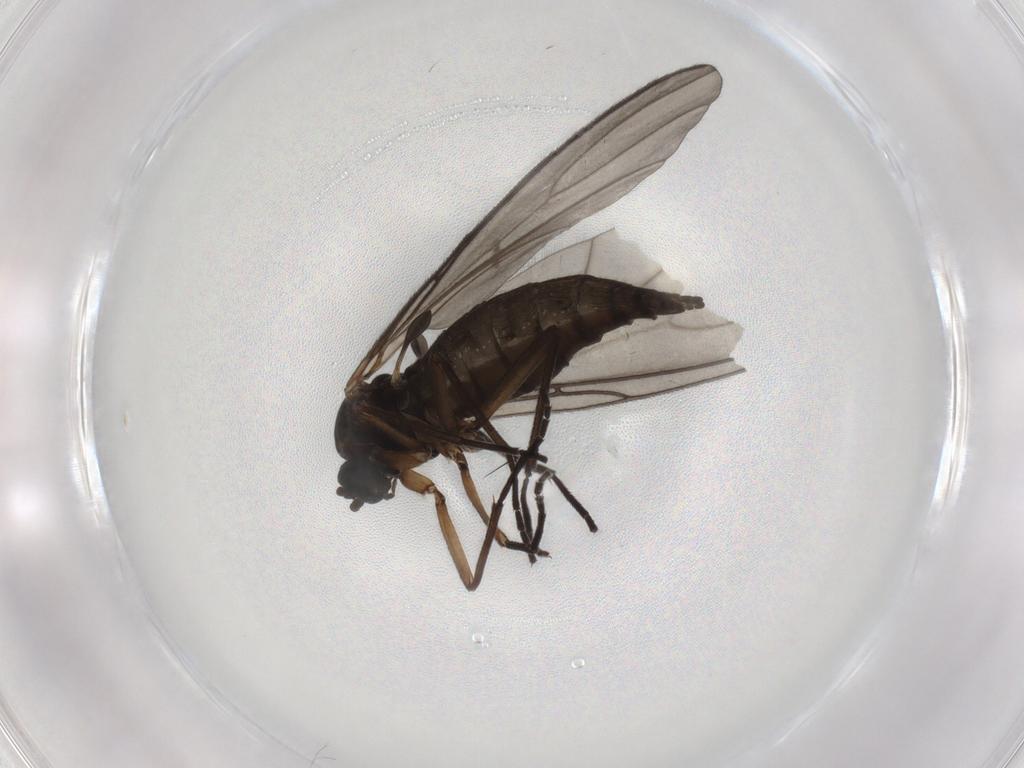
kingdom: Animalia
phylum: Arthropoda
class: Insecta
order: Diptera
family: Sciaridae
